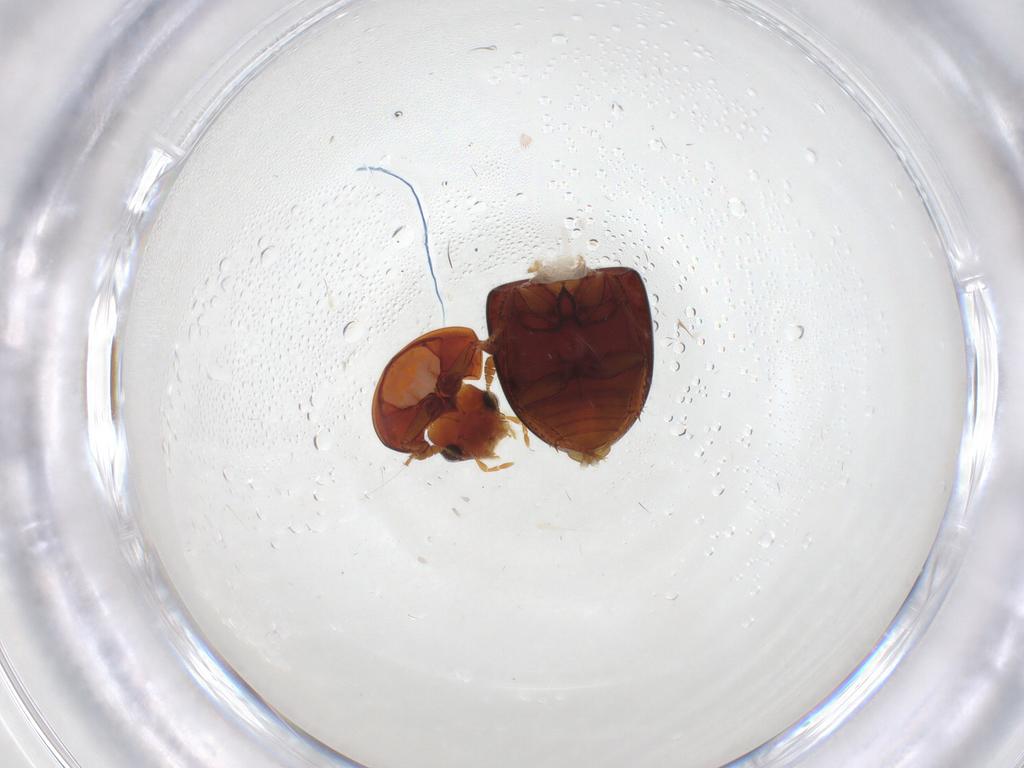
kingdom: Animalia
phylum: Arthropoda
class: Insecta
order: Coleoptera
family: Hydrophilidae
